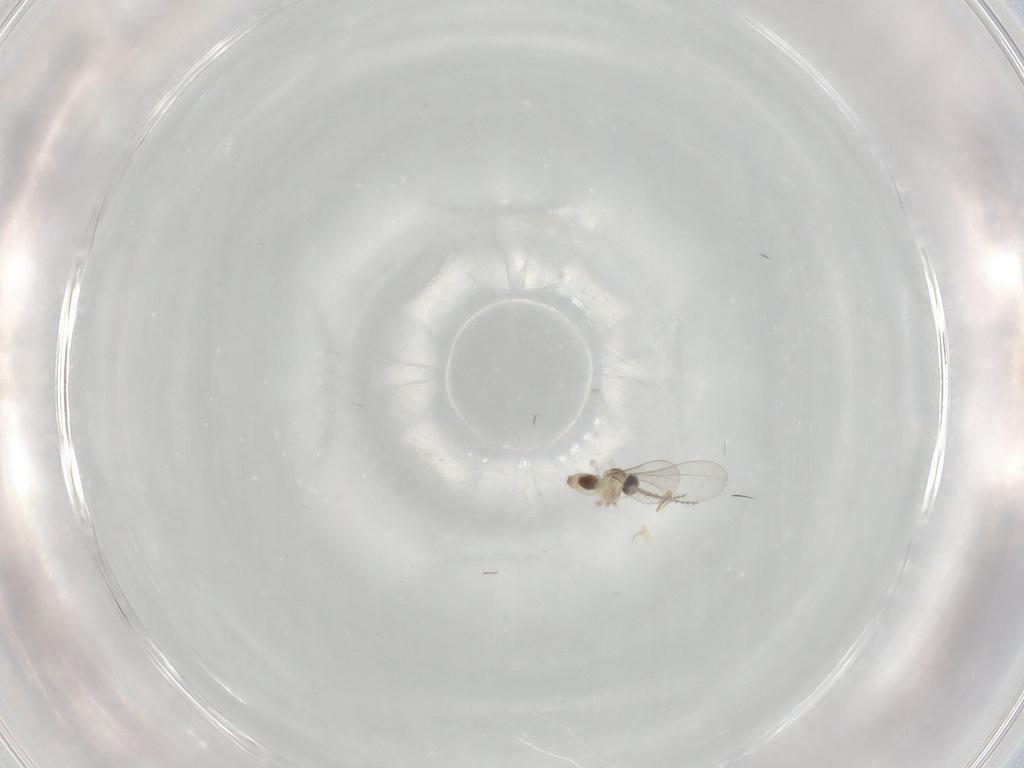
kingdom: Animalia
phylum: Arthropoda
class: Insecta
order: Diptera
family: Cecidomyiidae
